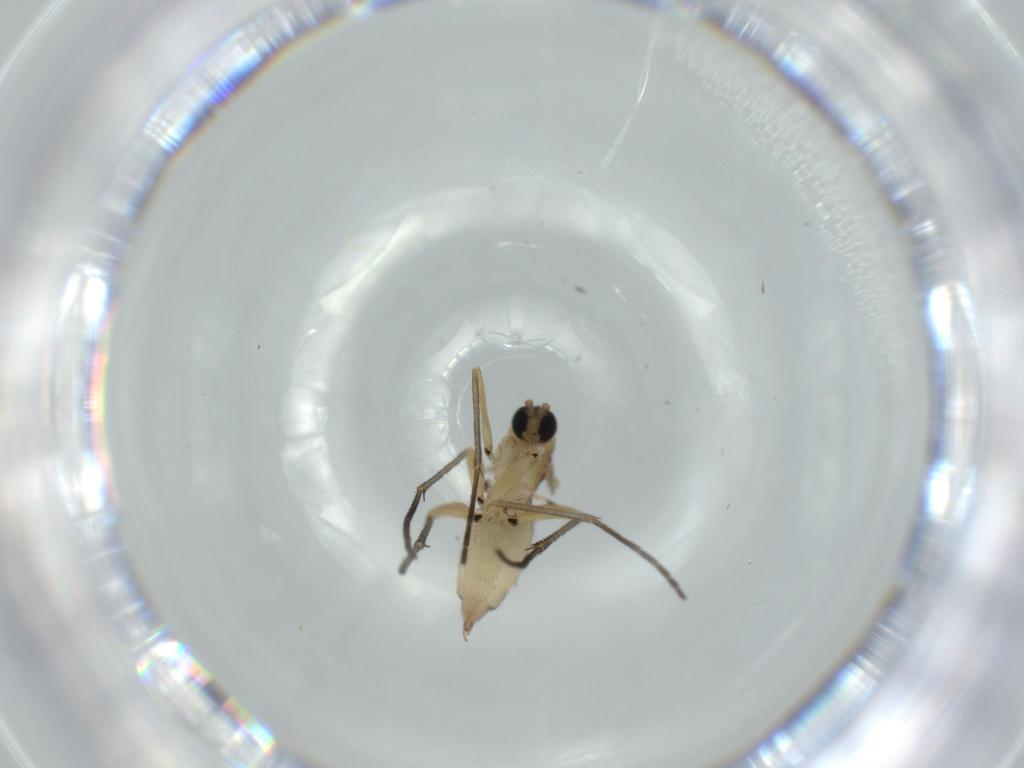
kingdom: Animalia
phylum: Arthropoda
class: Insecta
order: Diptera
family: Sciaridae
